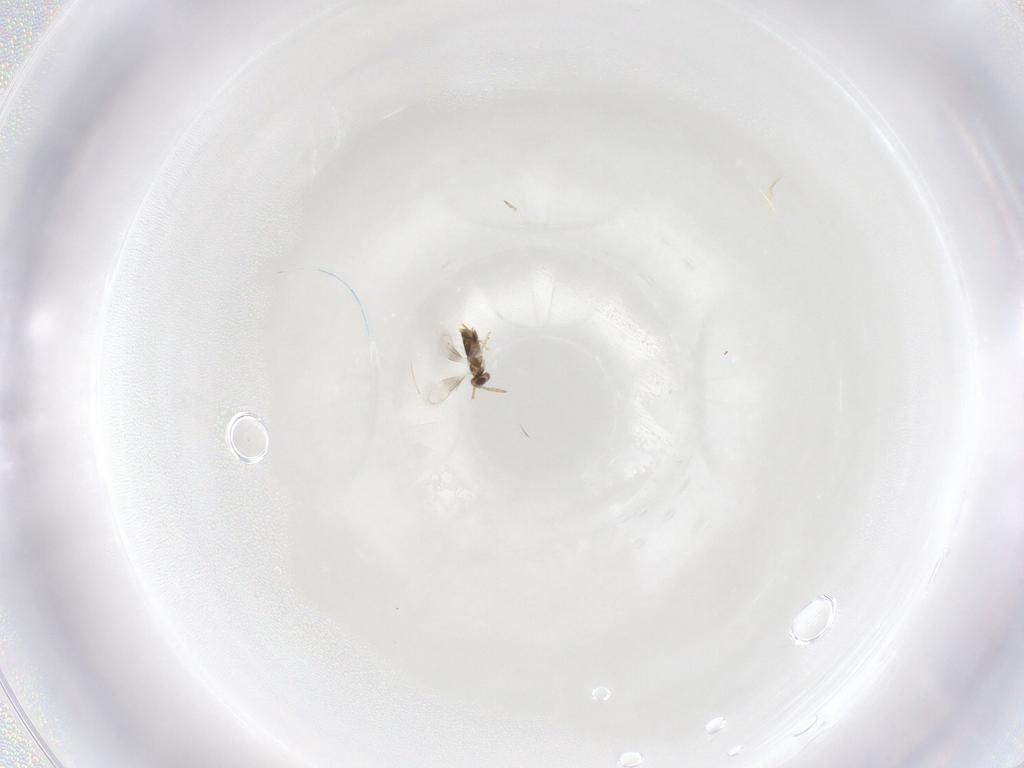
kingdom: Animalia
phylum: Arthropoda
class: Insecta
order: Hymenoptera
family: Aphelinidae
